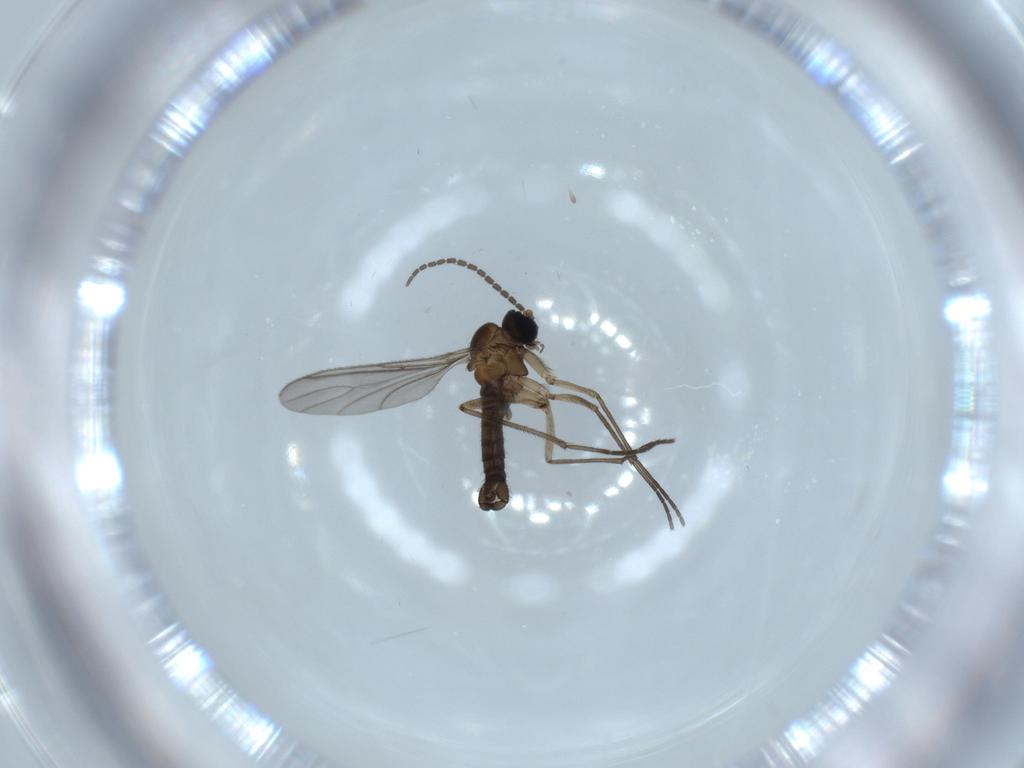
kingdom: Animalia
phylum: Arthropoda
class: Insecta
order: Diptera
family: Sciaridae
